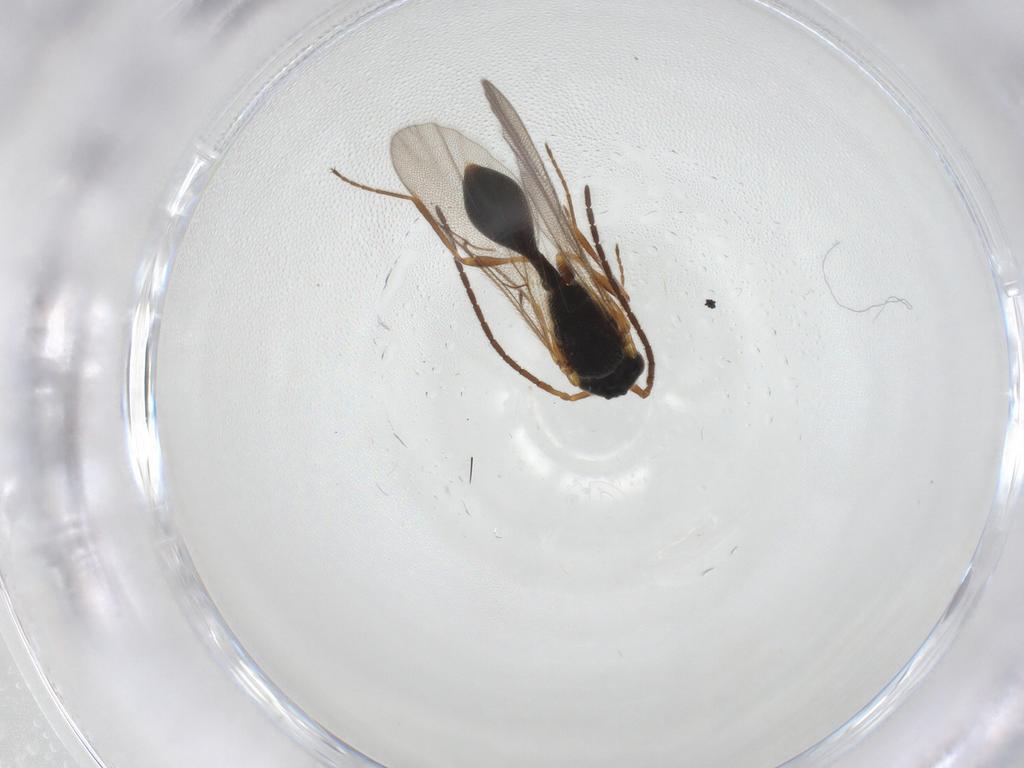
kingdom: Animalia
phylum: Arthropoda
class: Insecta
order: Hymenoptera
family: Diapriidae
